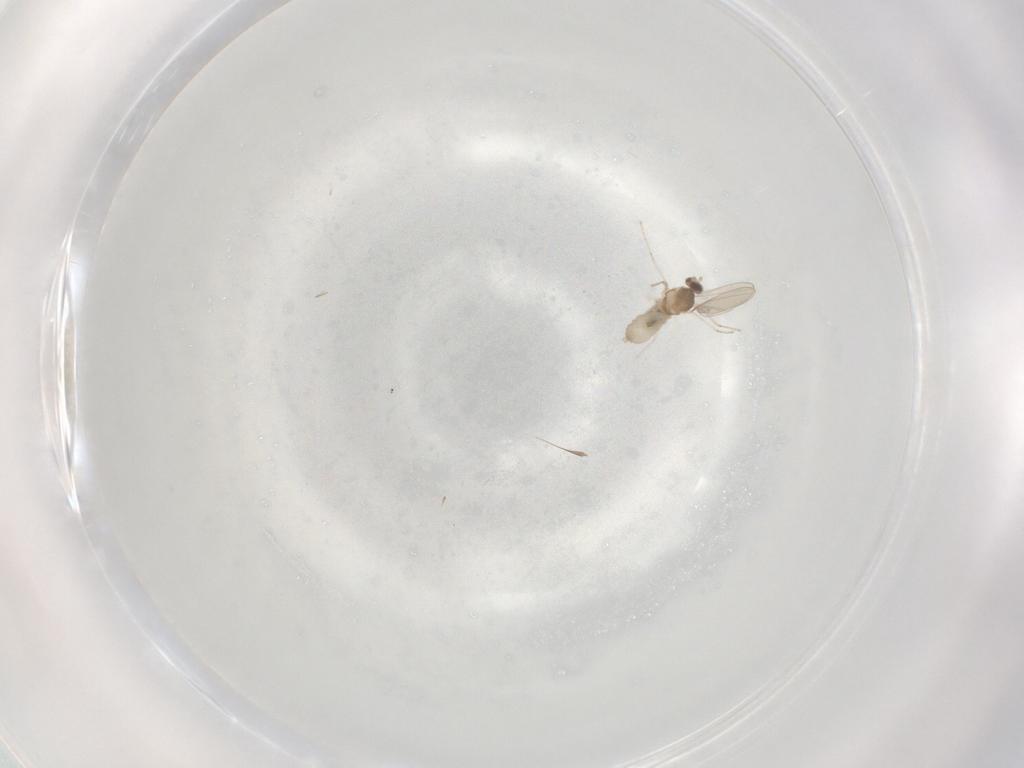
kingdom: Animalia
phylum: Arthropoda
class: Insecta
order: Diptera
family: Cecidomyiidae
